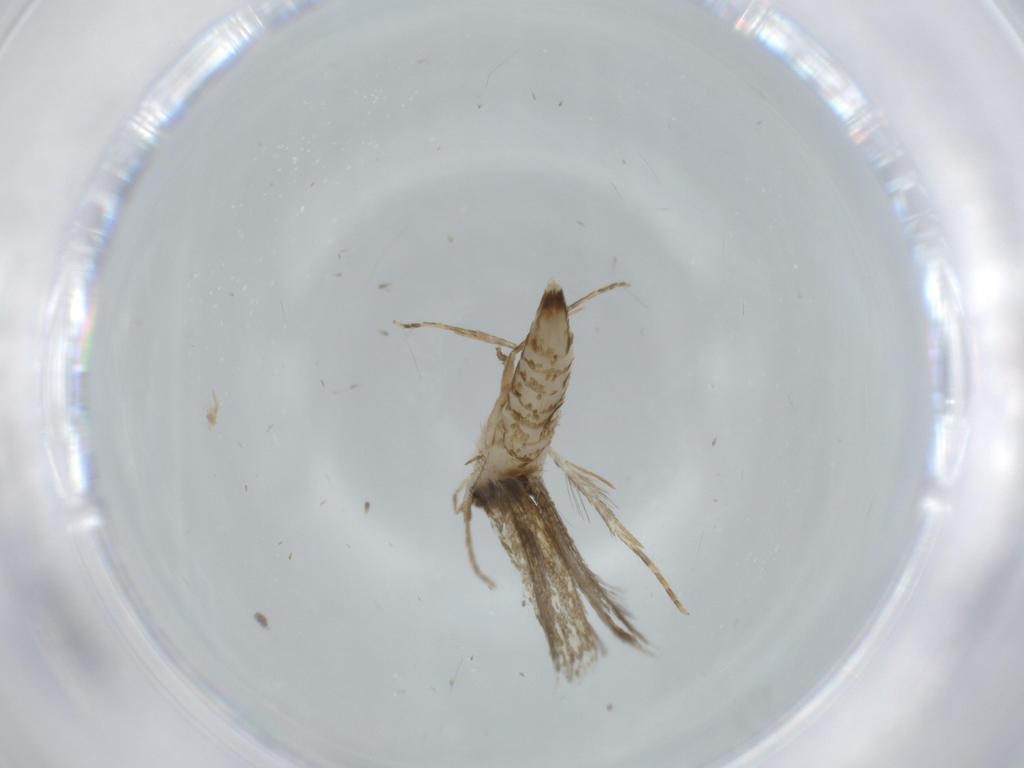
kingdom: Animalia
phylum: Arthropoda
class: Insecta
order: Lepidoptera
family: Tineidae
